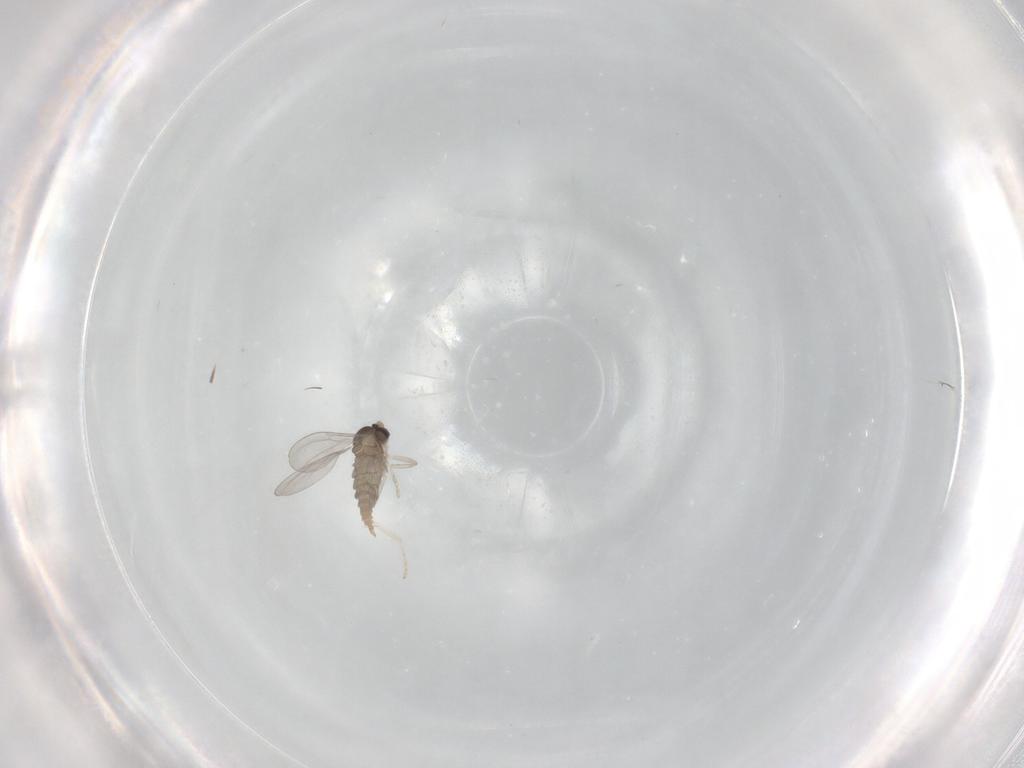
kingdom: Animalia
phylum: Arthropoda
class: Insecta
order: Diptera
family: Cecidomyiidae
